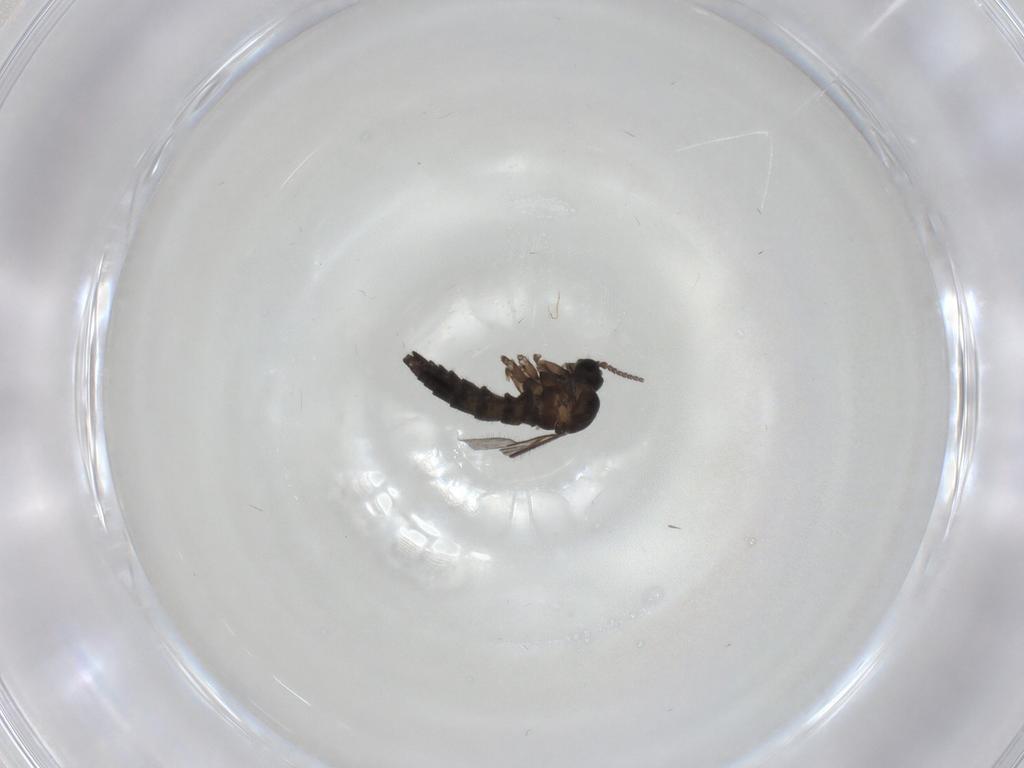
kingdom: Animalia
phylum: Arthropoda
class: Insecta
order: Diptera
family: Sciaridae
